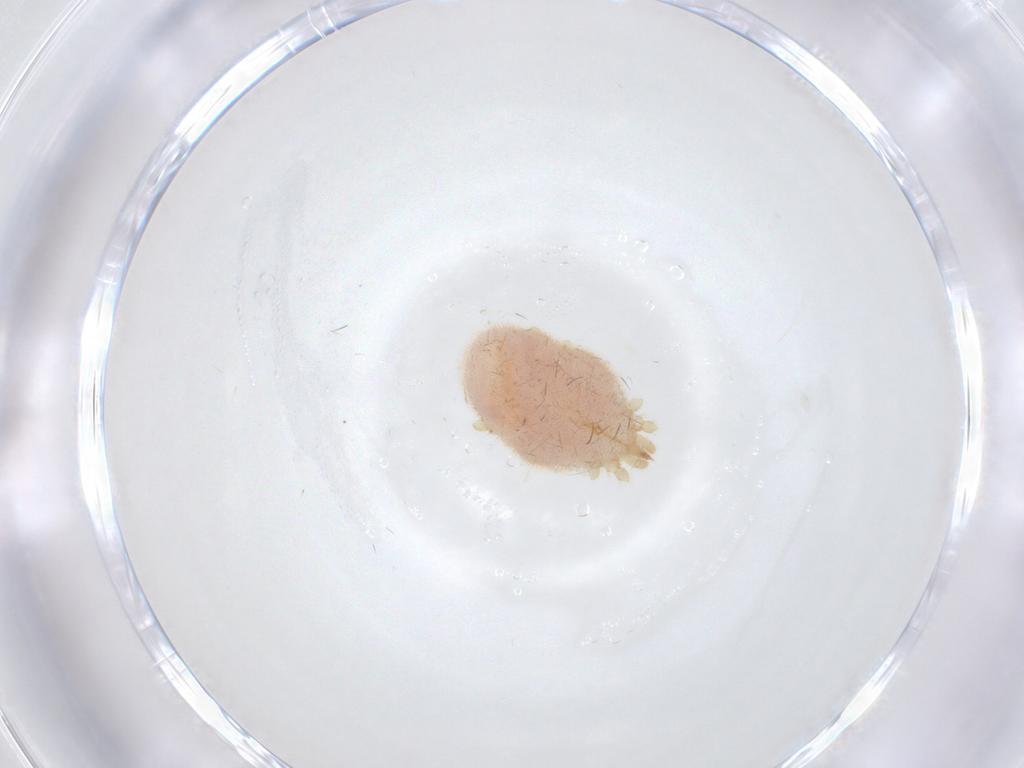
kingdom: Animalia
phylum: Arthropoda
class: Arachnida
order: Trombidiformes
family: Erythraeidae
